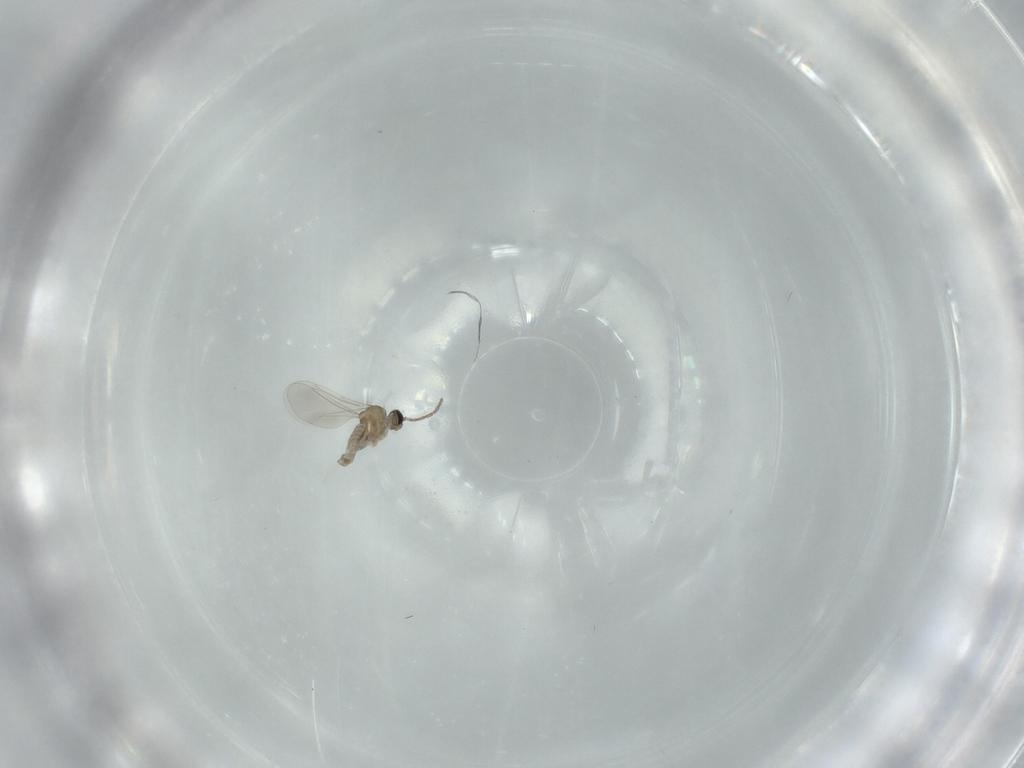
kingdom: Animalia
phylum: Arthropoda
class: Insecta
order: Diptera
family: Cecidomyiidae
